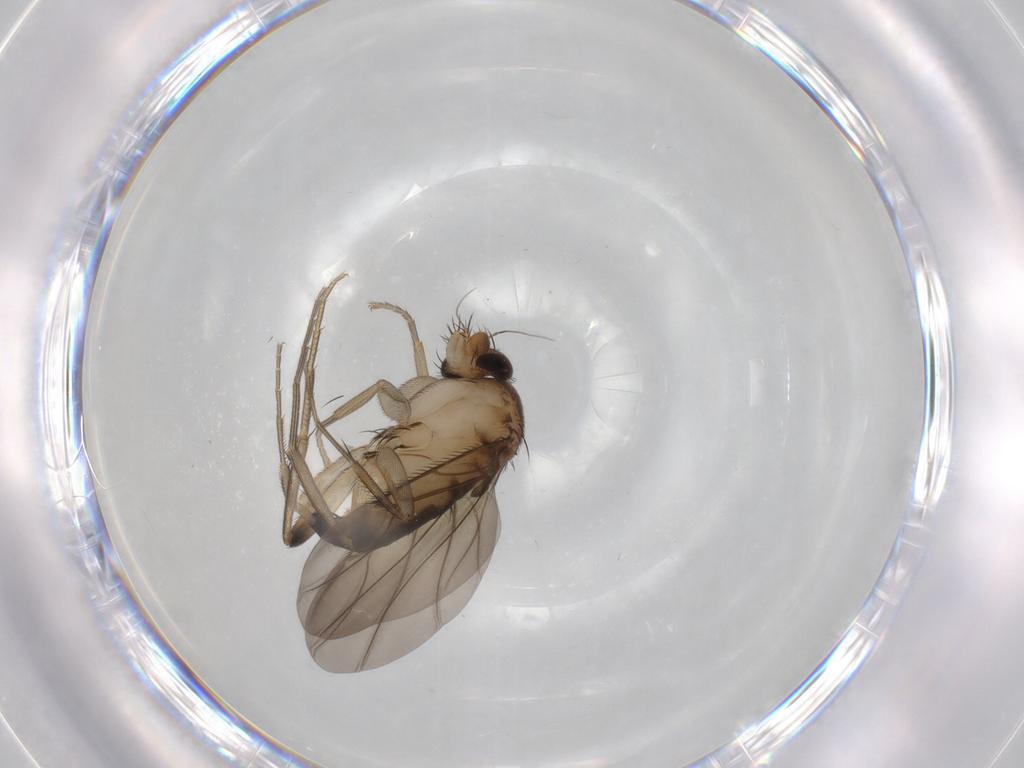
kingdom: Animalia
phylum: Arthropoda
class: Insecta
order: Diptera
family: Phoridae
